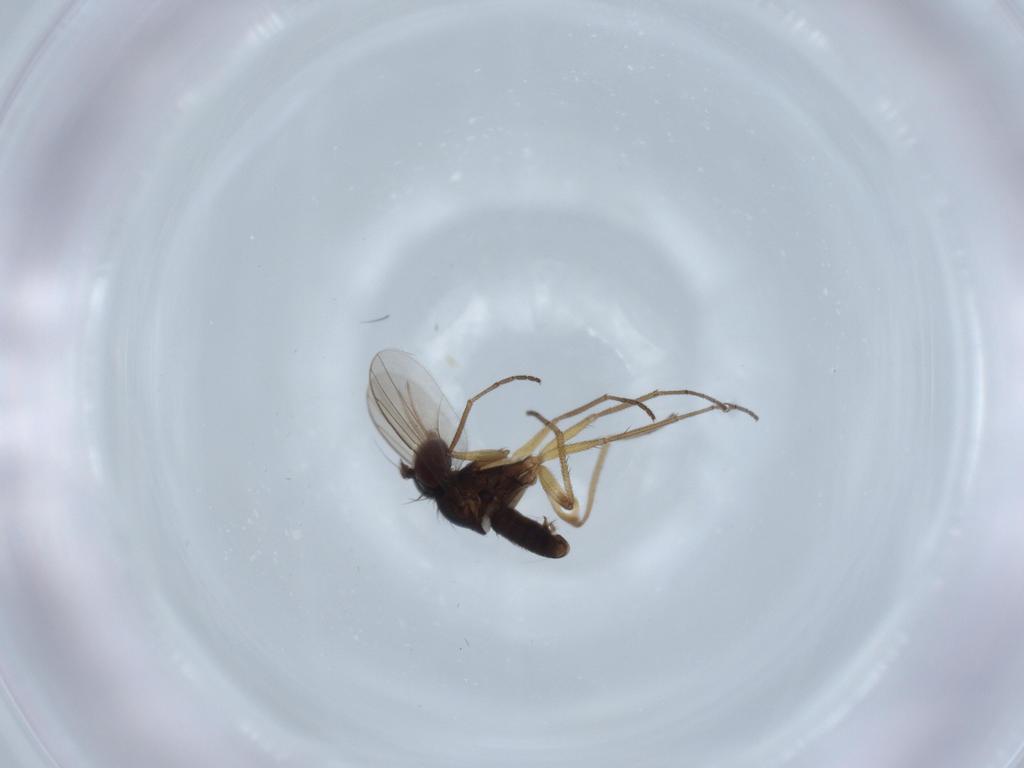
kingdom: Animalia
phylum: Arthropoda
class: Insecta
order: Diptera
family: Dolichopodidae
